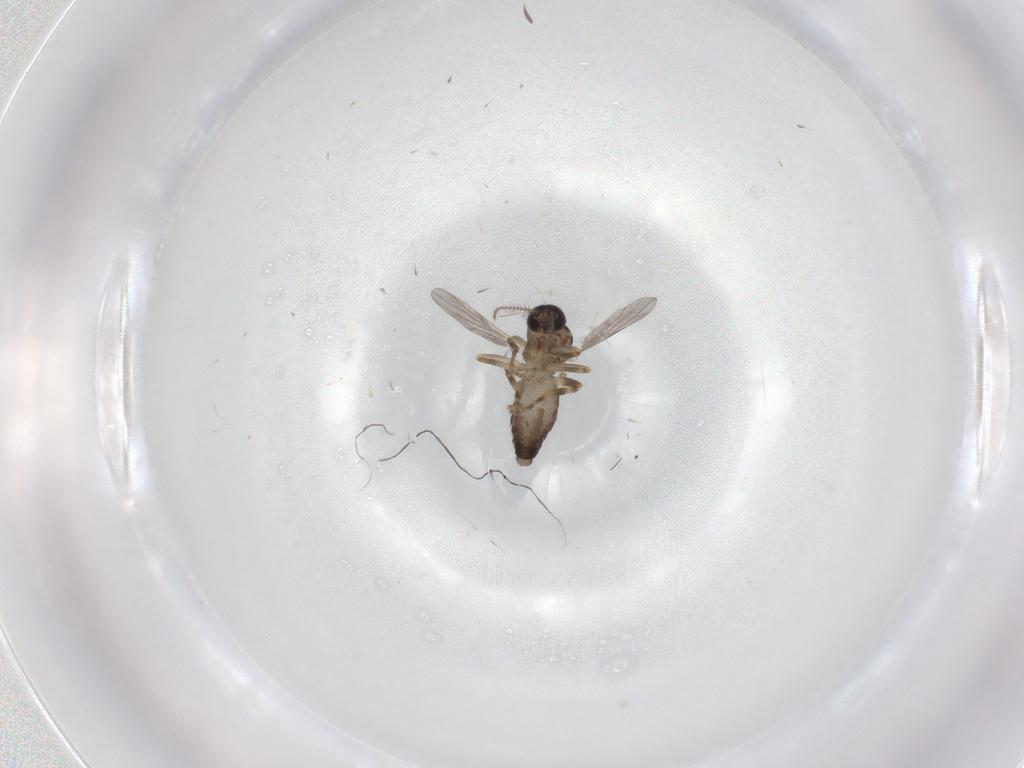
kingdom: Animalia
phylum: Arthropoda
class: Insecta
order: Diptera
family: Ceratopogonidae
